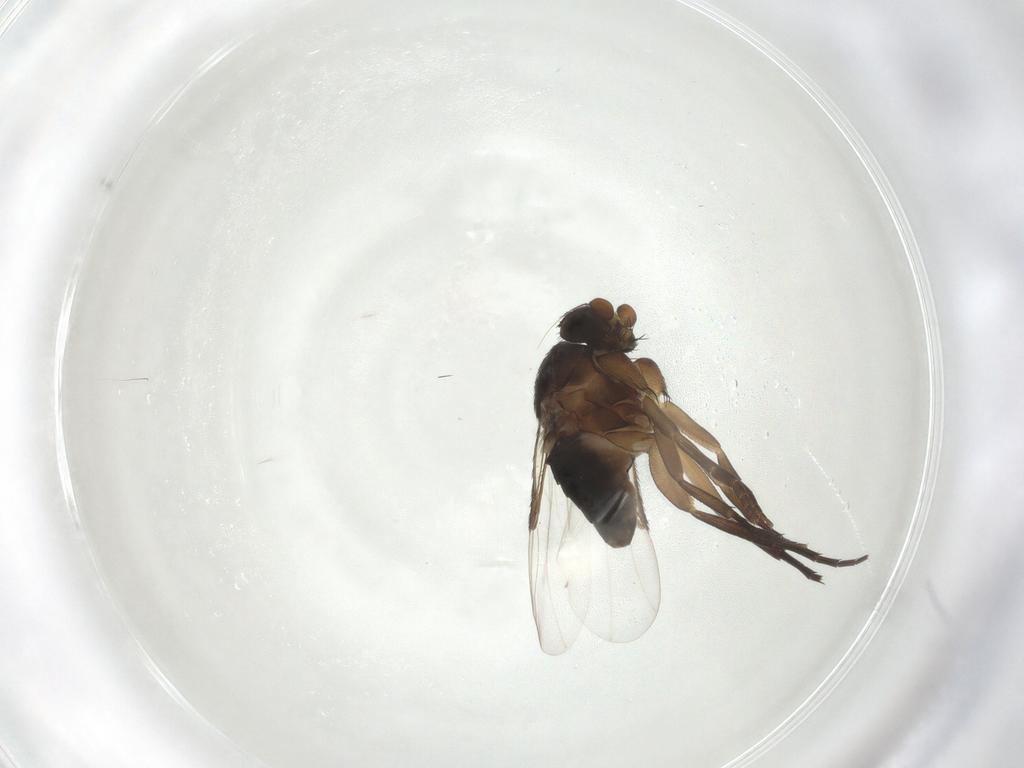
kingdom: Animalia
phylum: Arthropoda
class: Insecta
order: Diptera
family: Phoridae
